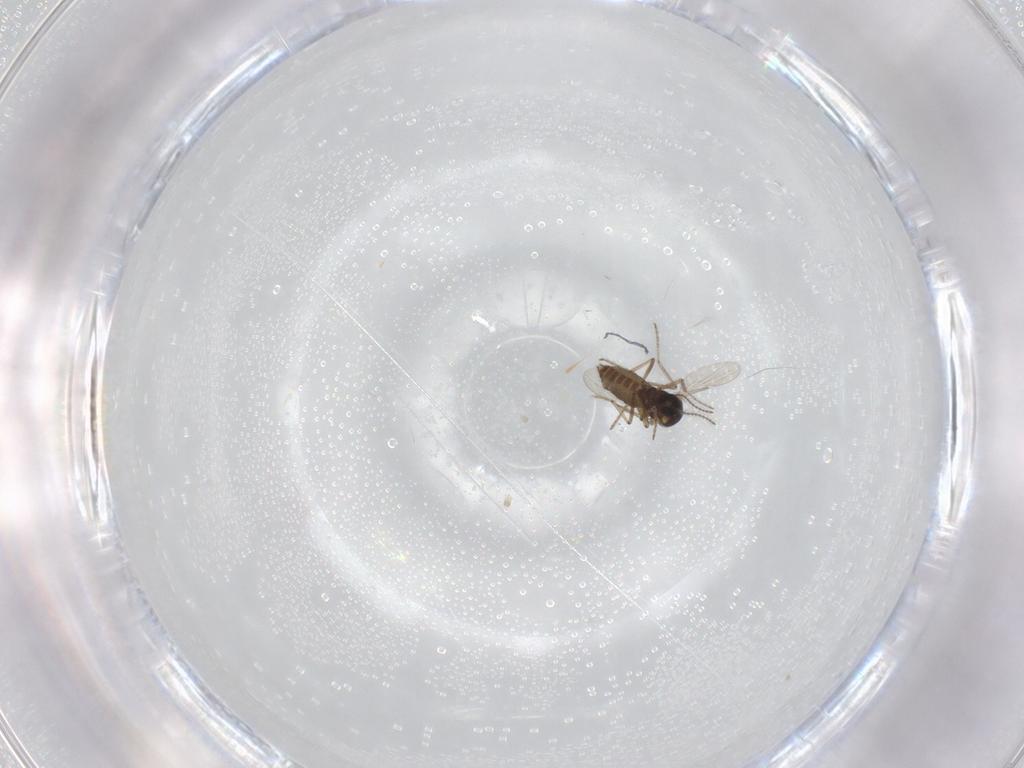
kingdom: Animalia
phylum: Arthropoda
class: Insecta
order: Diptera
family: Ceratopogonidae
